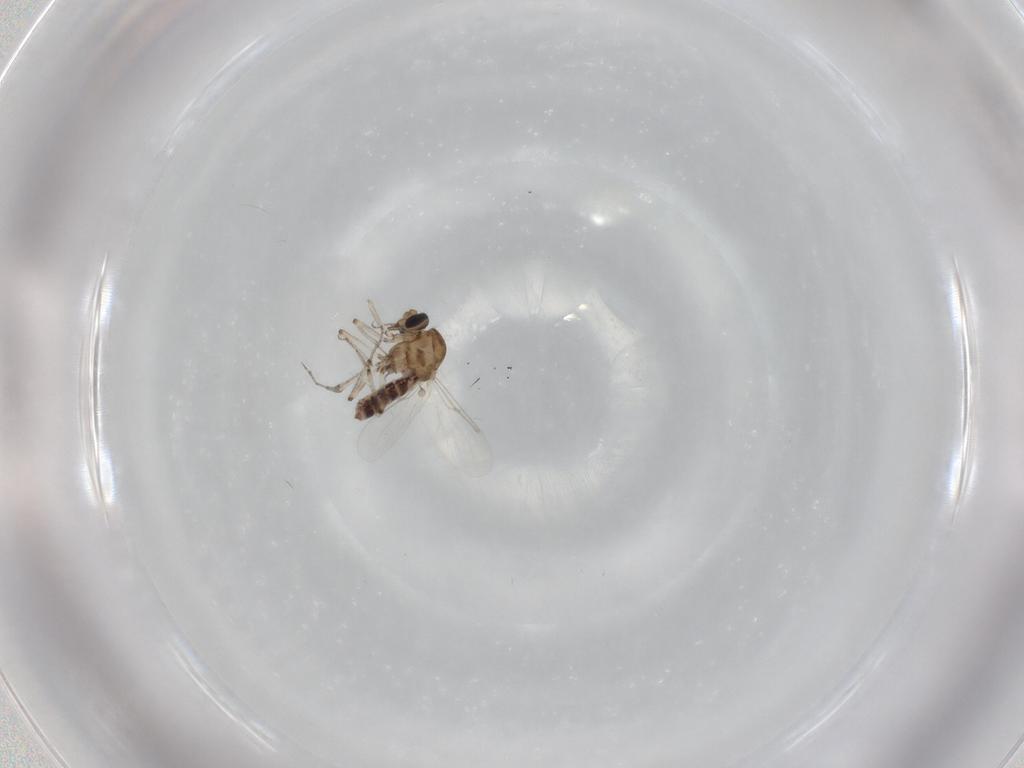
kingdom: Animalia
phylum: Arthropoda
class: Insecta
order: Diptera
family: Ceratopogonidae
